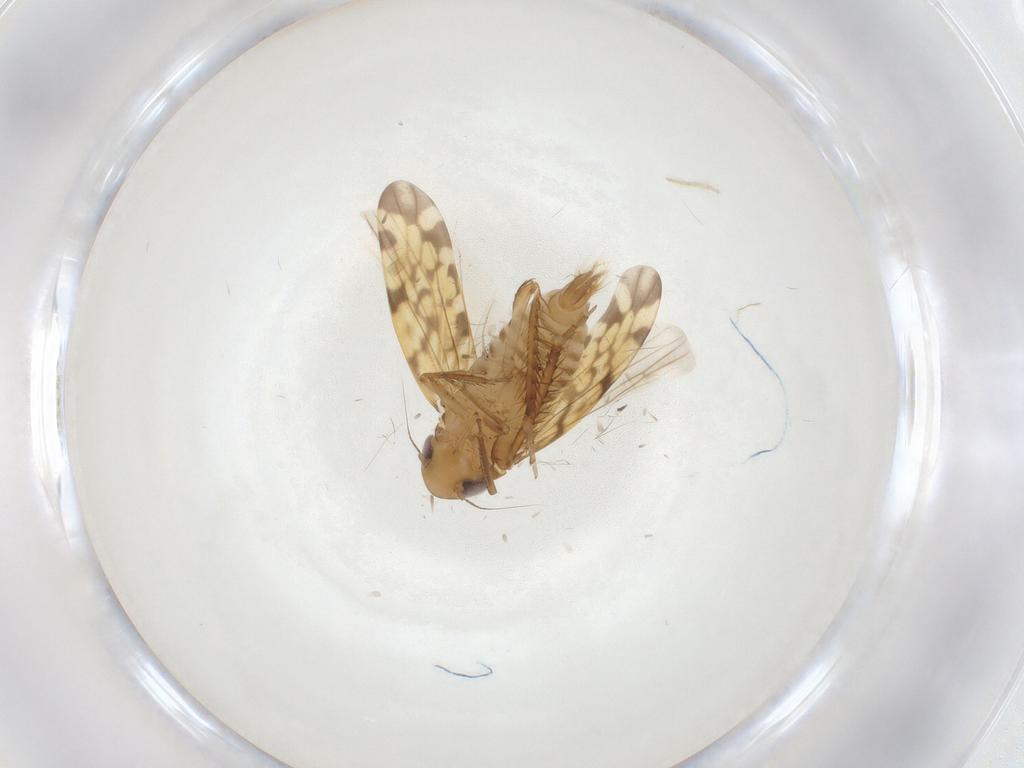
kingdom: Animalia
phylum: Arthropoda
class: Insecta
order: Hemiptera
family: Cicadellidae
